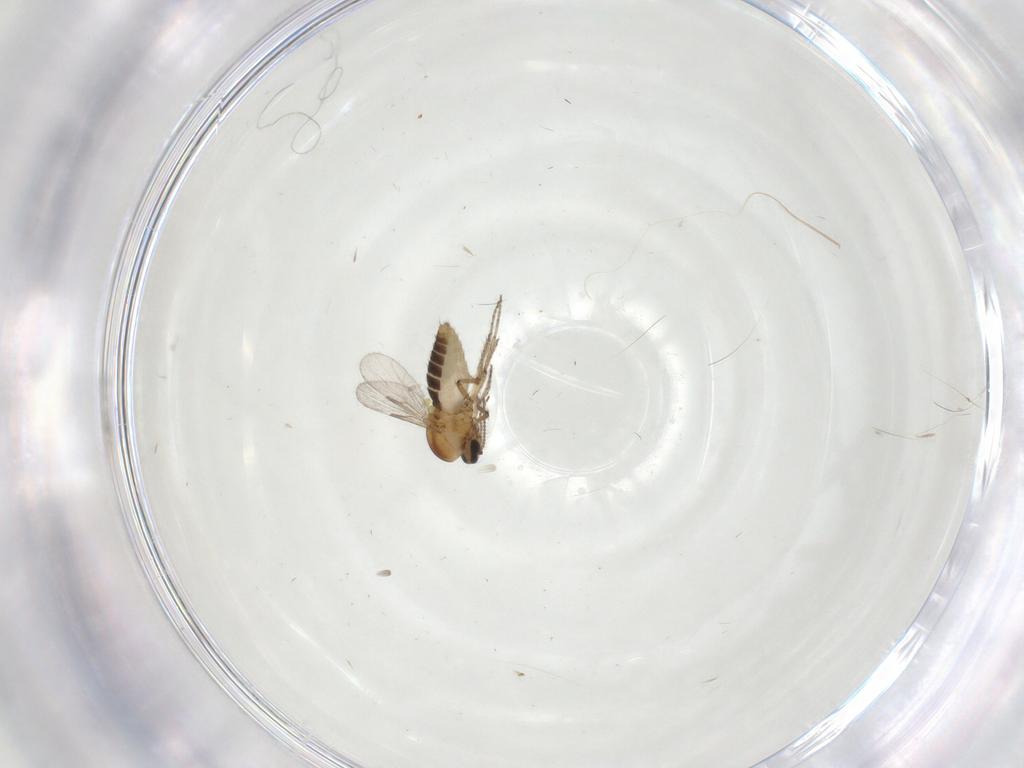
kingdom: Animalia
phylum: Arthropoda
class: Insecta
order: Diptera
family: Ceratopogonidae
